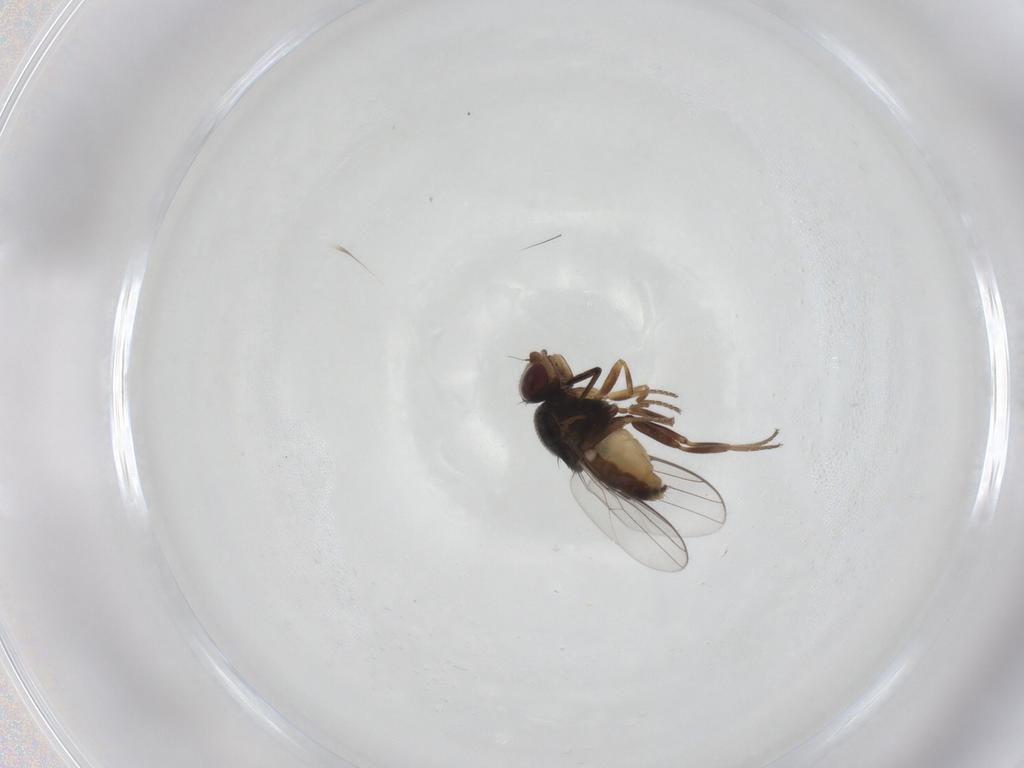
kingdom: Animalia
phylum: Arthropoda
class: Insecta
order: Diptera
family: Chloropidae
